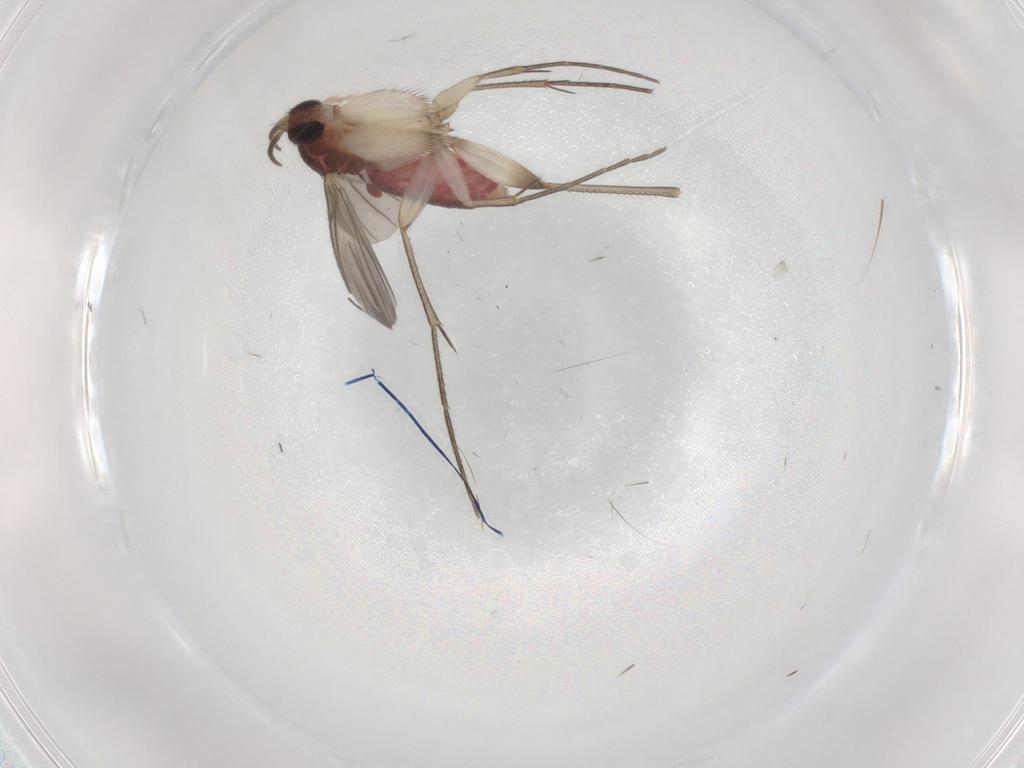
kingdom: Animalia
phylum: Arthropoda
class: Insecta
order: Diptera
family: Mycetophilidae
